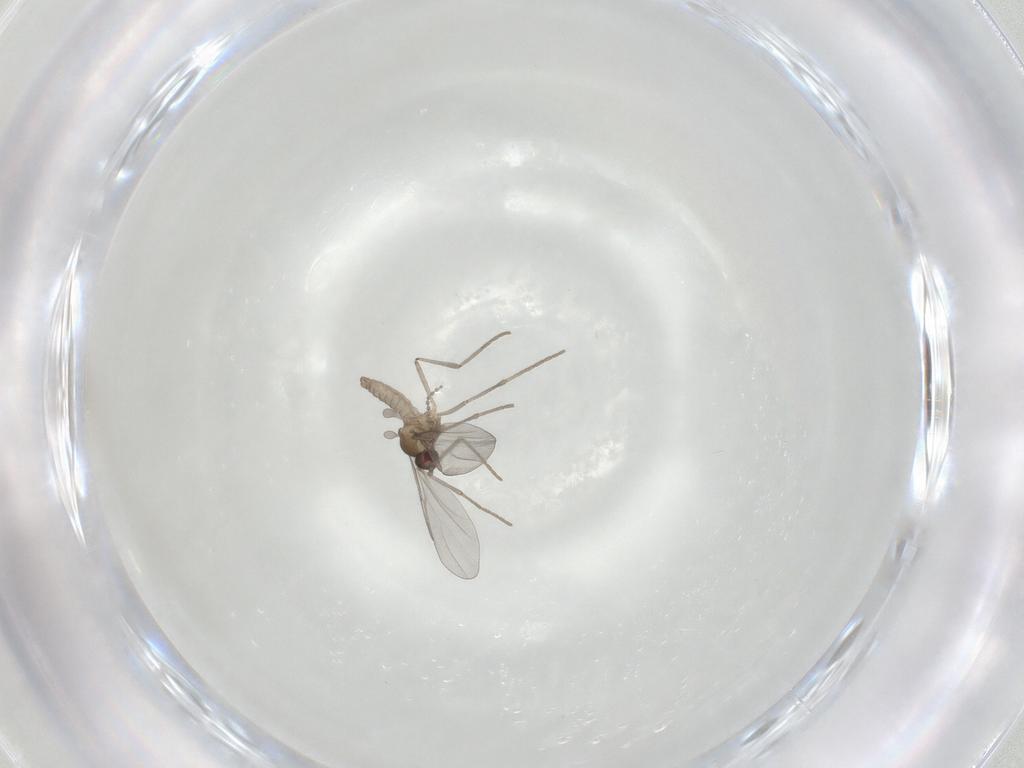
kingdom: Animalia
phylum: Arthropoda
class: Insecta
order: Diptera
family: Cecidomyiidae
